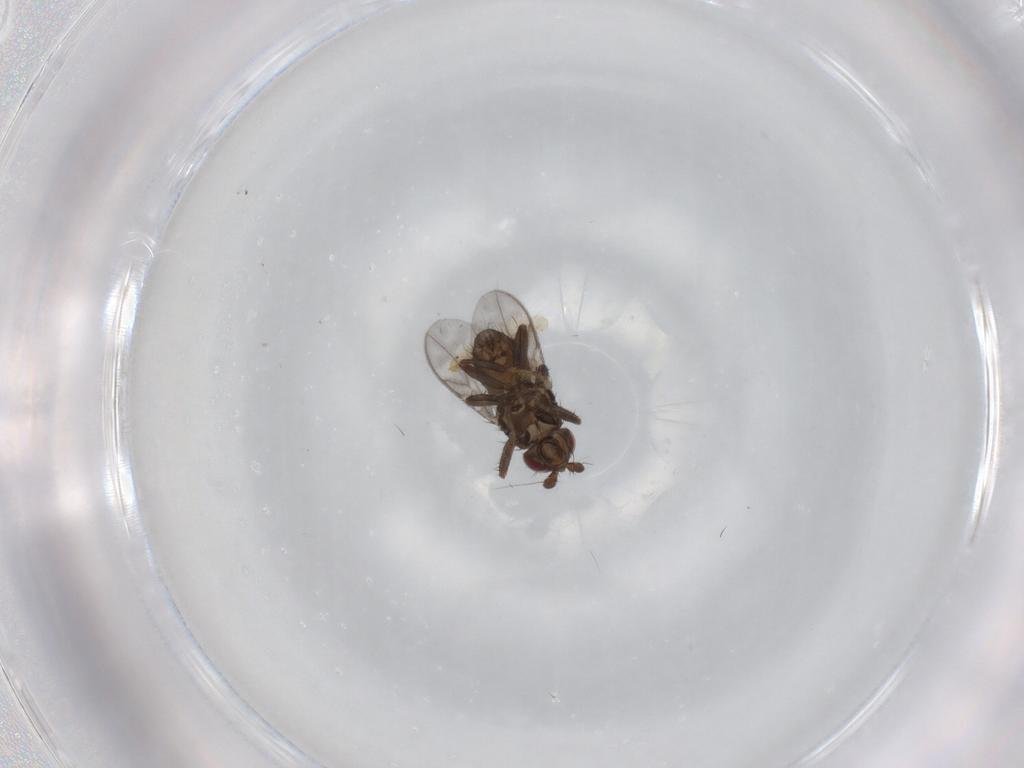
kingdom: Animalia
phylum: Arthropoda
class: Insecta
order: Diptera
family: Sphaeroceridae
